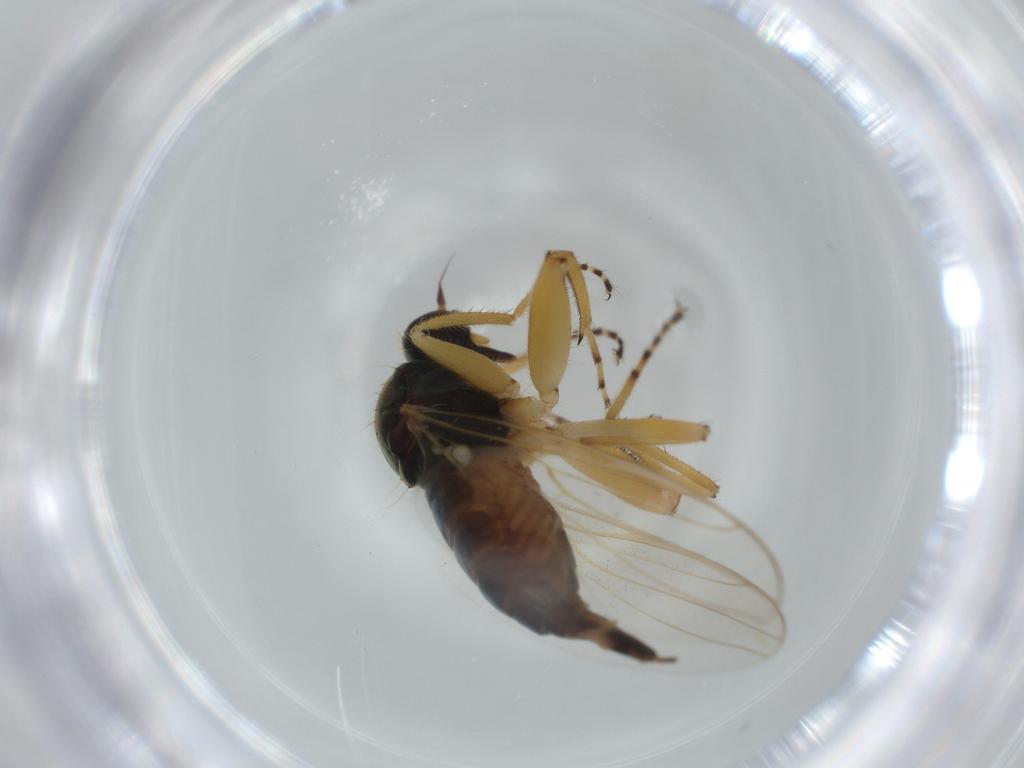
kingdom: Animalia
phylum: Arthropoda
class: Insecta
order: Diptera
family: Hybotidae
